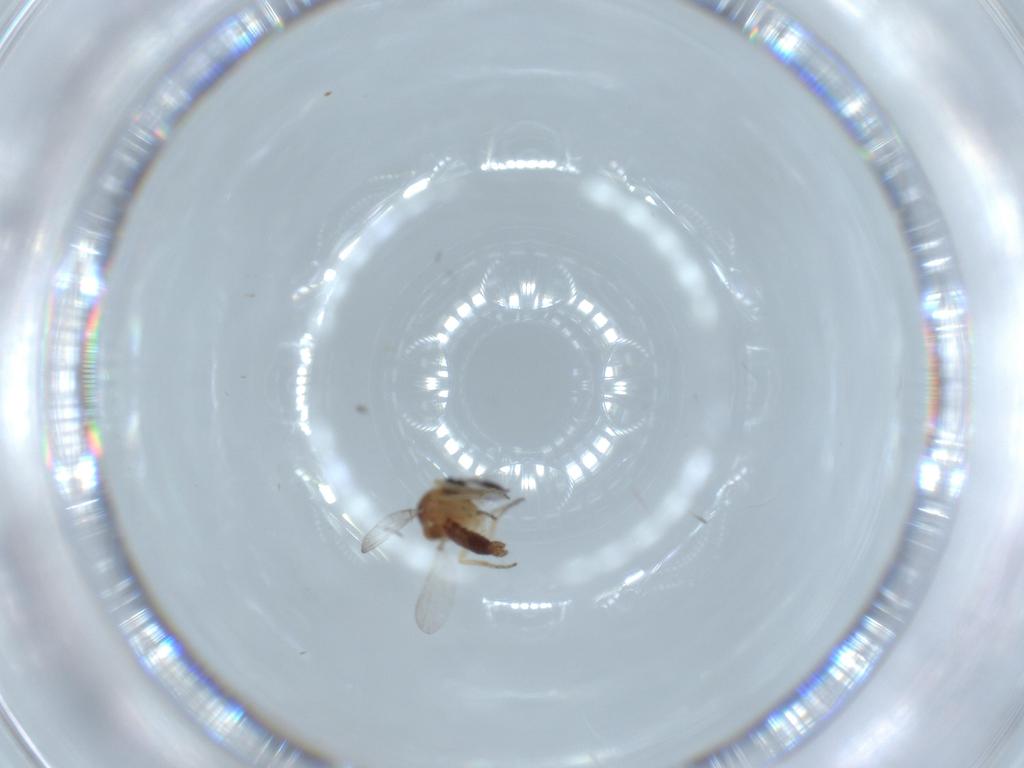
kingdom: Animalia
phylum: Arthropoda
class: Insecta
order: Diptera
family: Ceratopogonidae
